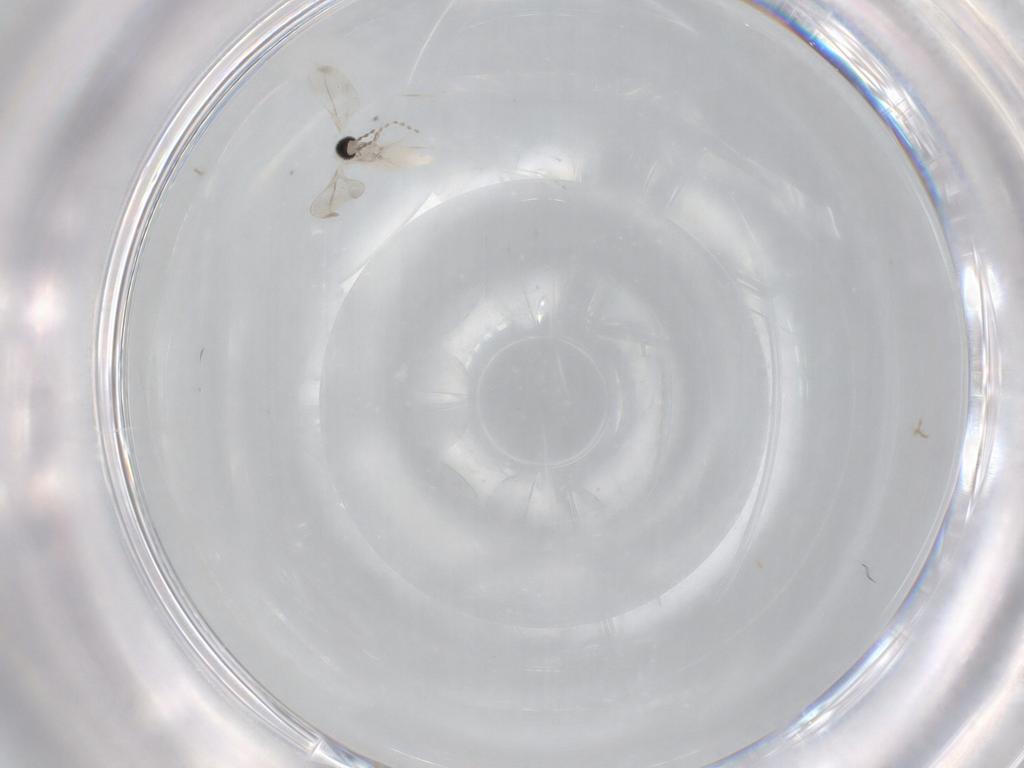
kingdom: Animalia
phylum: Arthropoda
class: Insecta
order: Diptera
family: Cecidomyiidae
